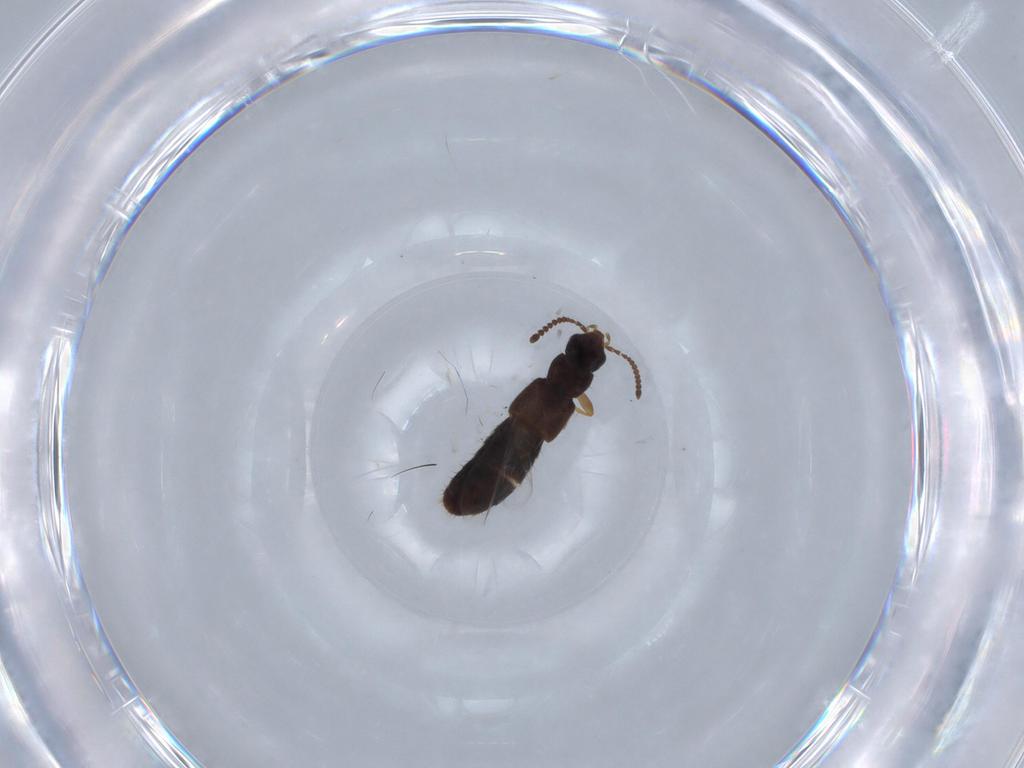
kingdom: Animalia
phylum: Arthropoda
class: Insecta
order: Coleoptera
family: Staphylinidae
